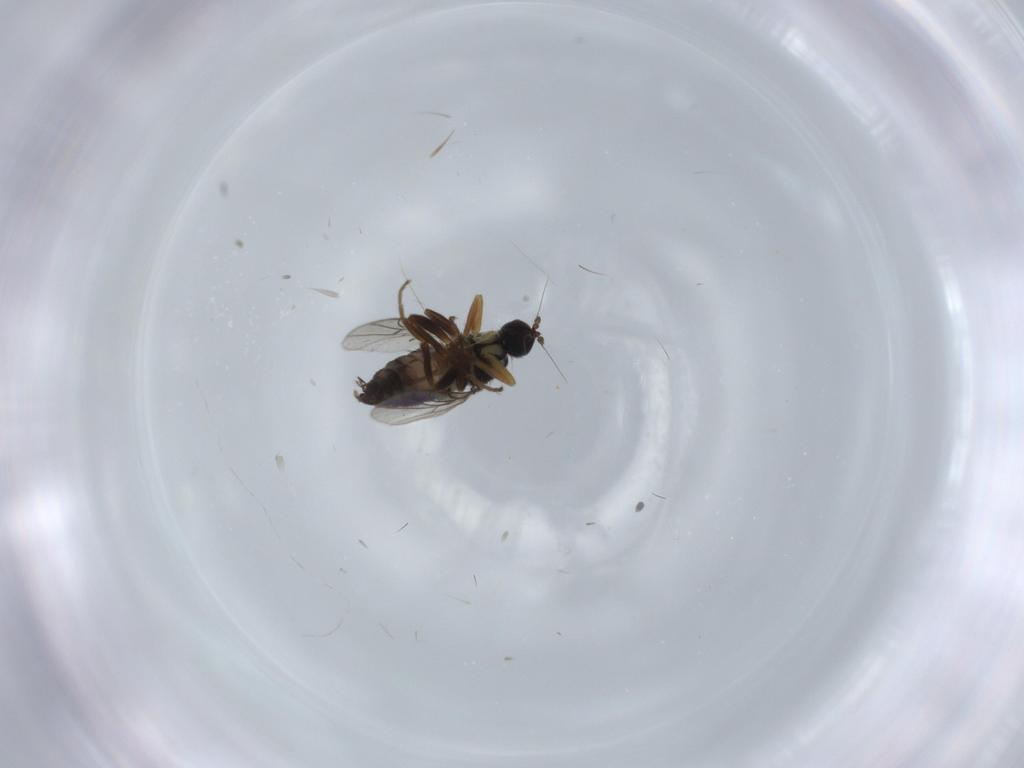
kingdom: Animalia
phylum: Arthropoda
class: Insecta
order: Diptera
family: Hybotidae
